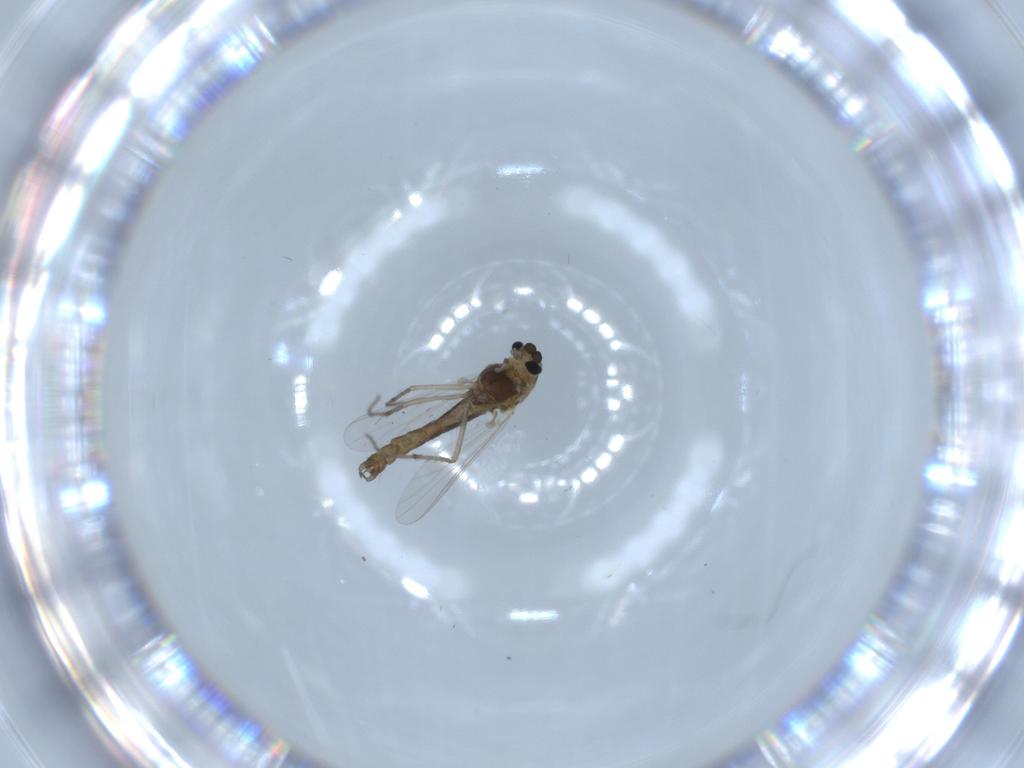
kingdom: Animalia
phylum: Arthropoda
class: Insecta
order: Diptera
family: Chironomidae
